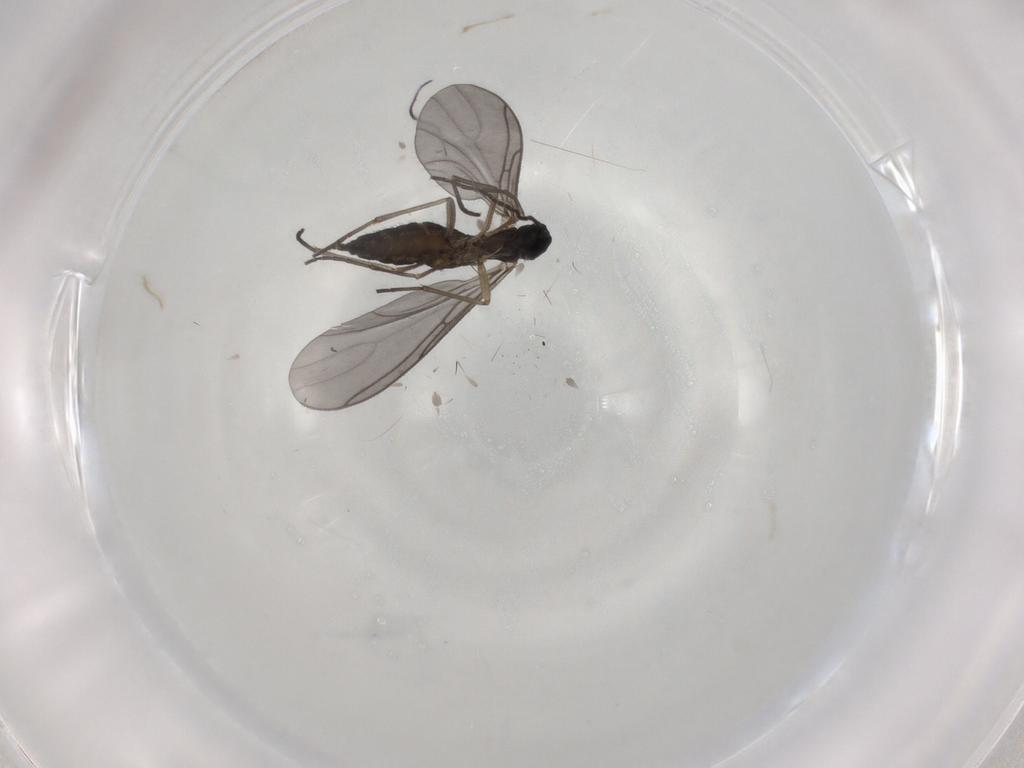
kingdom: Animalia
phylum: Arthropoda
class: Insecta
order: Diptera
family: Sciaridae
